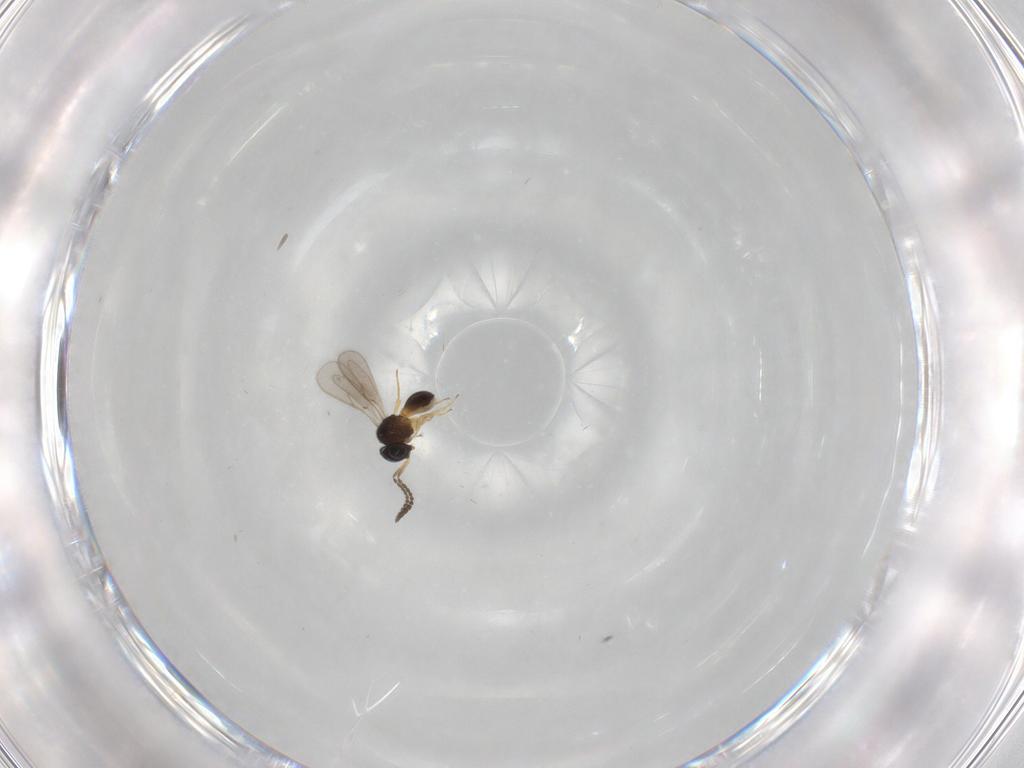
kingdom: Animalia
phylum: Arthropoda
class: Insecta
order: Hymenoptera
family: Scelionidae
